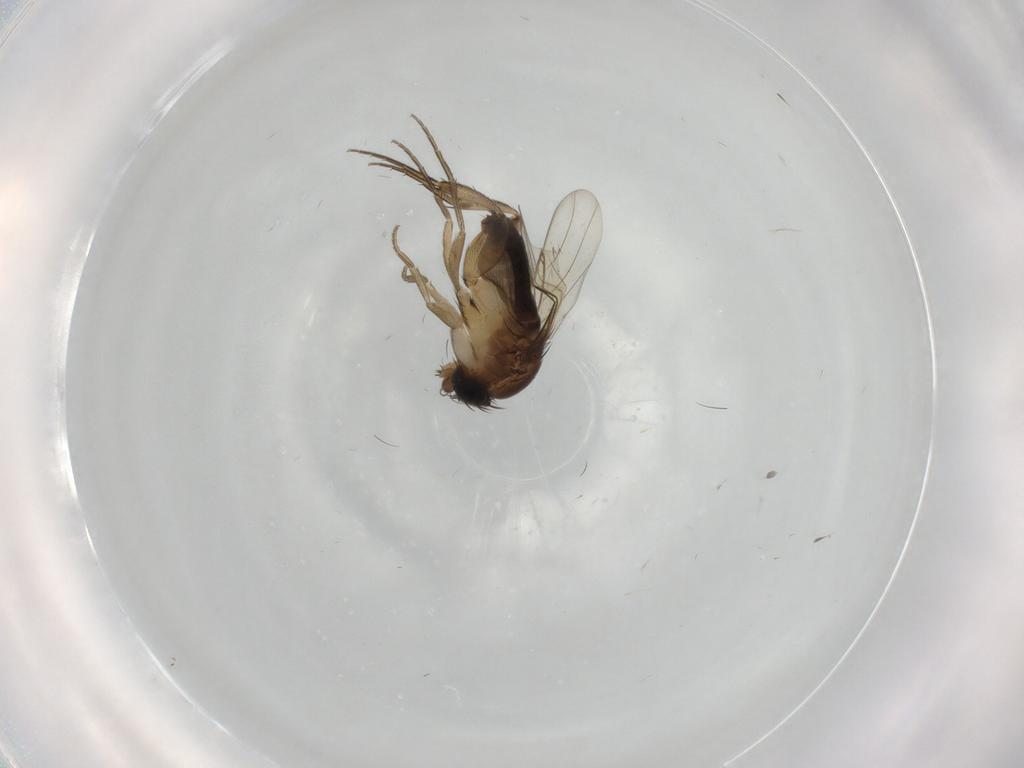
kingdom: Animalia
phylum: Arthropoda
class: Insecta
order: Diptera
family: Phoridae
